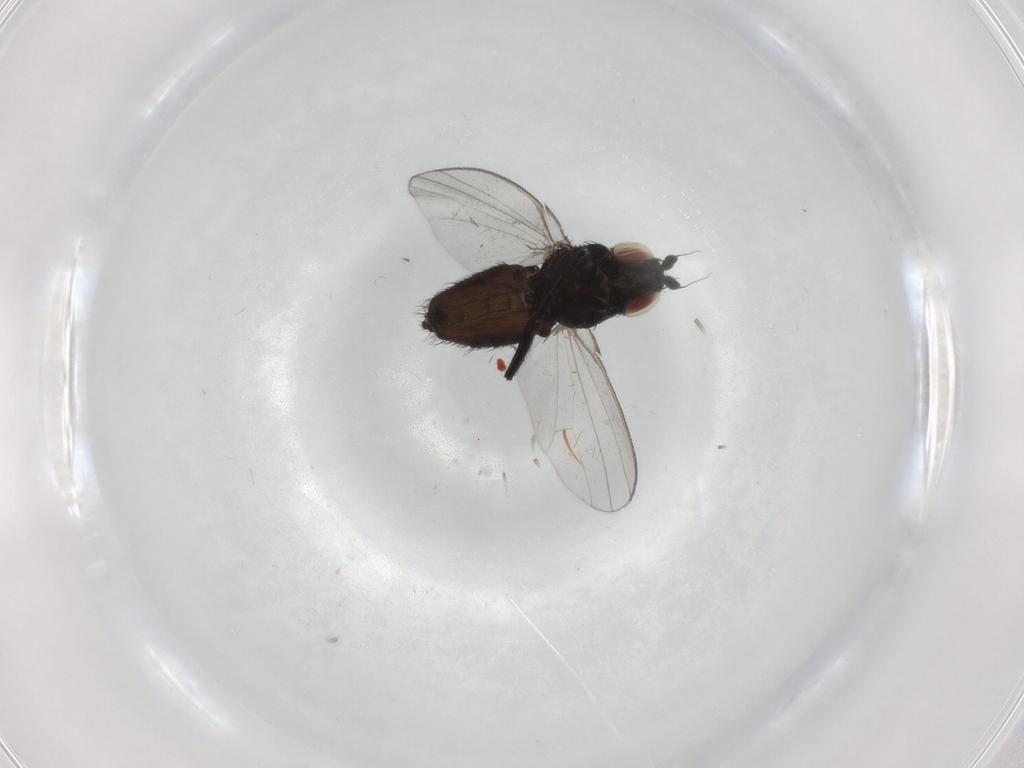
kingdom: Animalia
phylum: Arthropoda
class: Insecta
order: Diptera
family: Milichiidae
